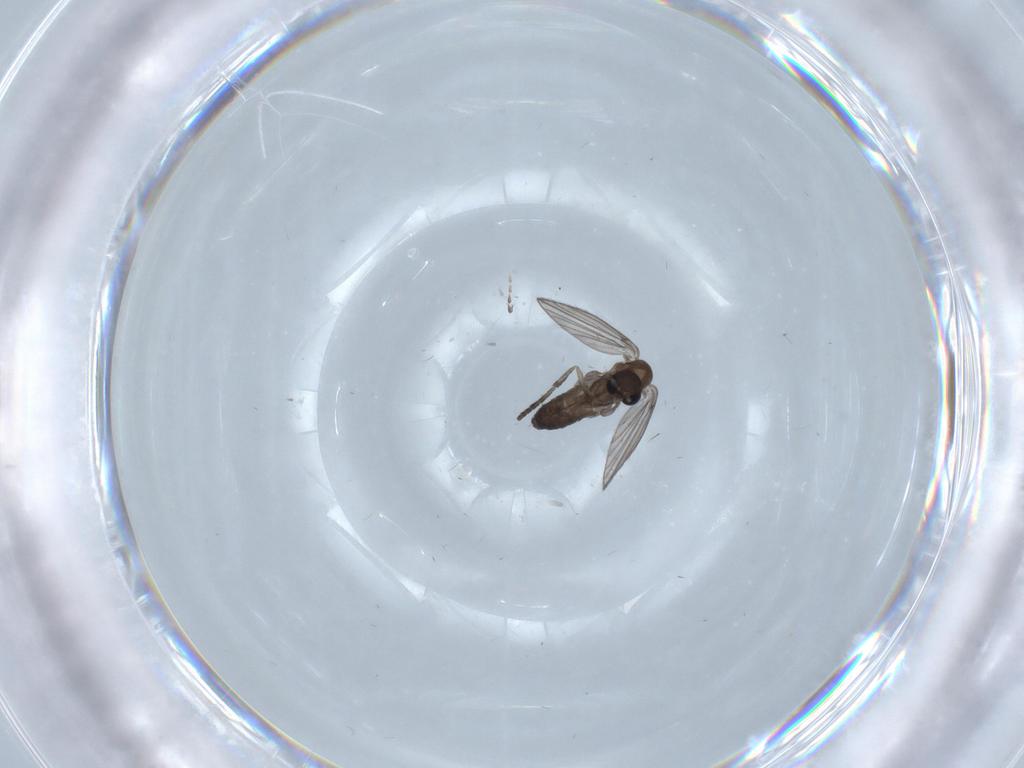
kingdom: Animalia
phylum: Arthropoda
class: Insecta
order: Diptera
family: Cecidomyiidae
